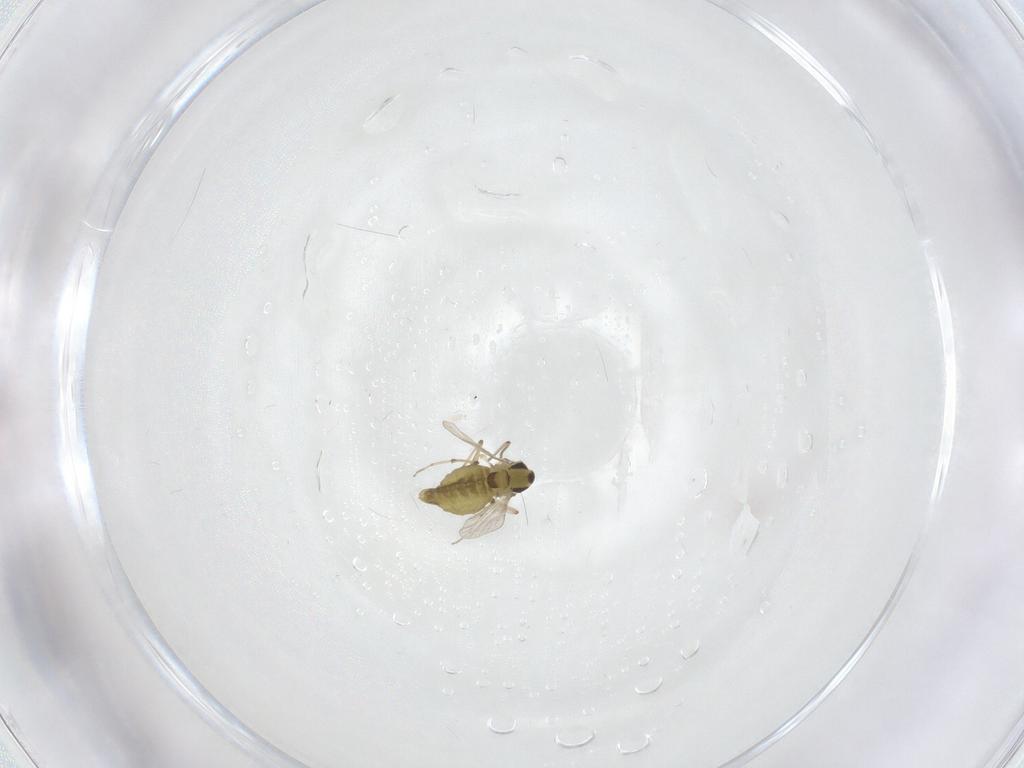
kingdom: Animalia
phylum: Arthropoda
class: Insecta
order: Diptera
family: Chironomidae
